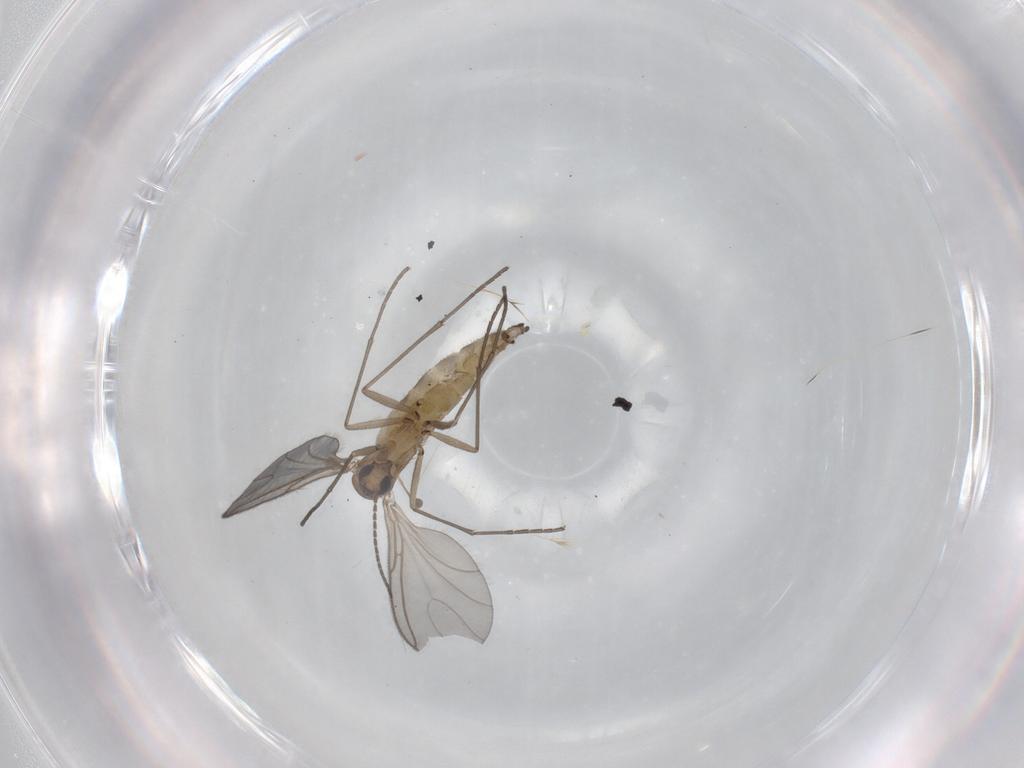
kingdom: Animalia
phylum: Arthropoda
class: Insecta
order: Diptera
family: Sciaridae
